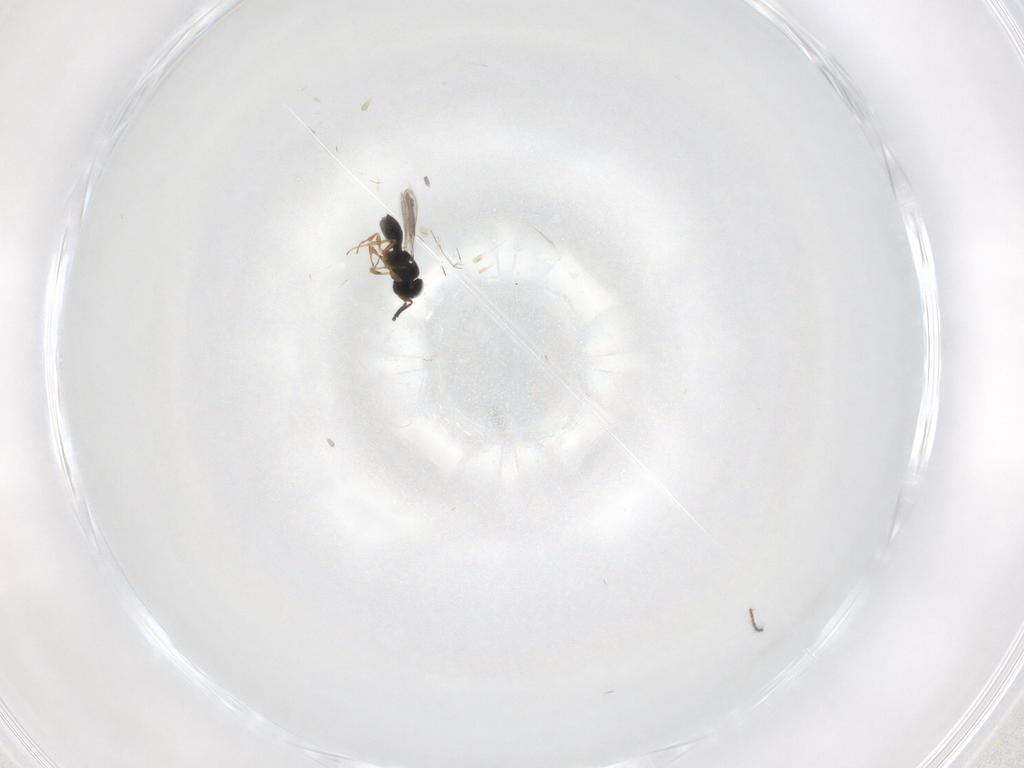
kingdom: Animalia
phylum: Arthropoda
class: Insecta
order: Hymenoptera
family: Scelionidae
